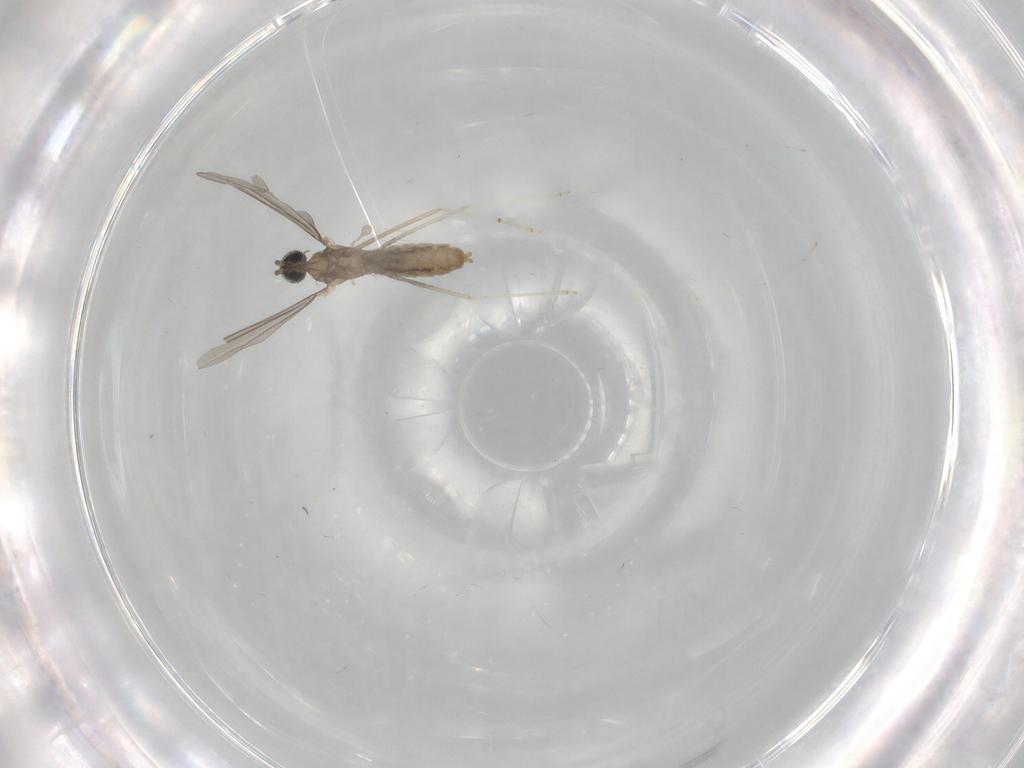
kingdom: Animalia
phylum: Arthropoda
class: Insecta
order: Diptera
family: Cecidomyiidae
